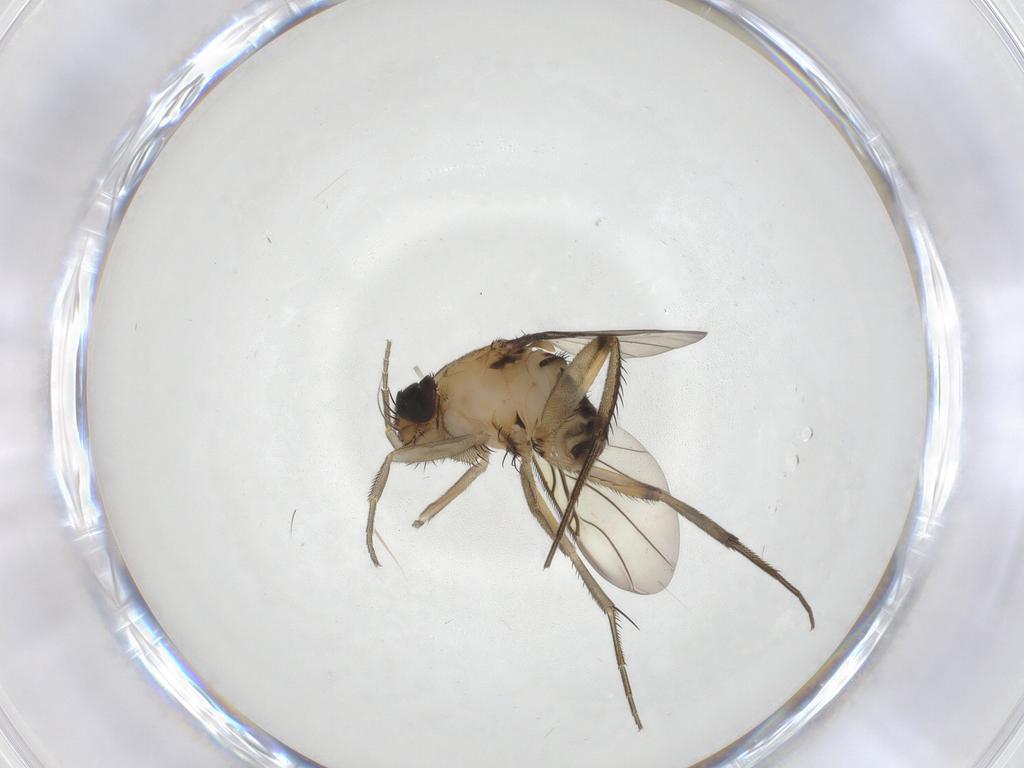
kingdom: Animalia
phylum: Arthropoda
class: Insecta
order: Diptera
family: Phoridae
